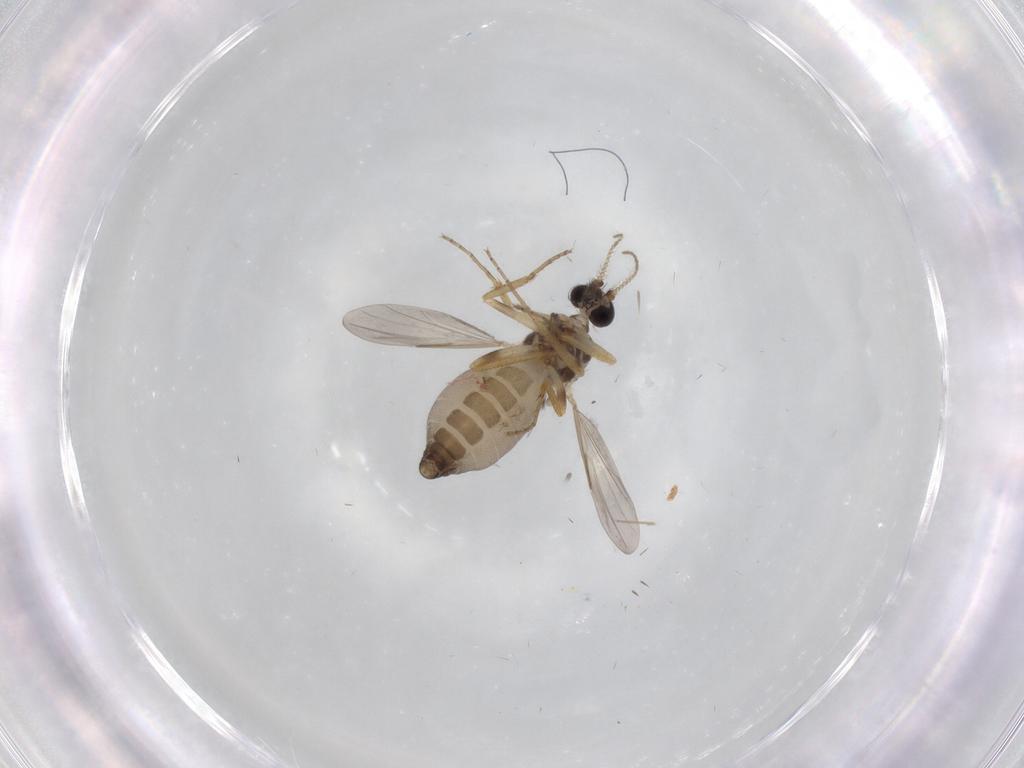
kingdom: Animalia
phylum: Arthropoda
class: Insecta
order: Diptera
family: Ceratopogonidae
